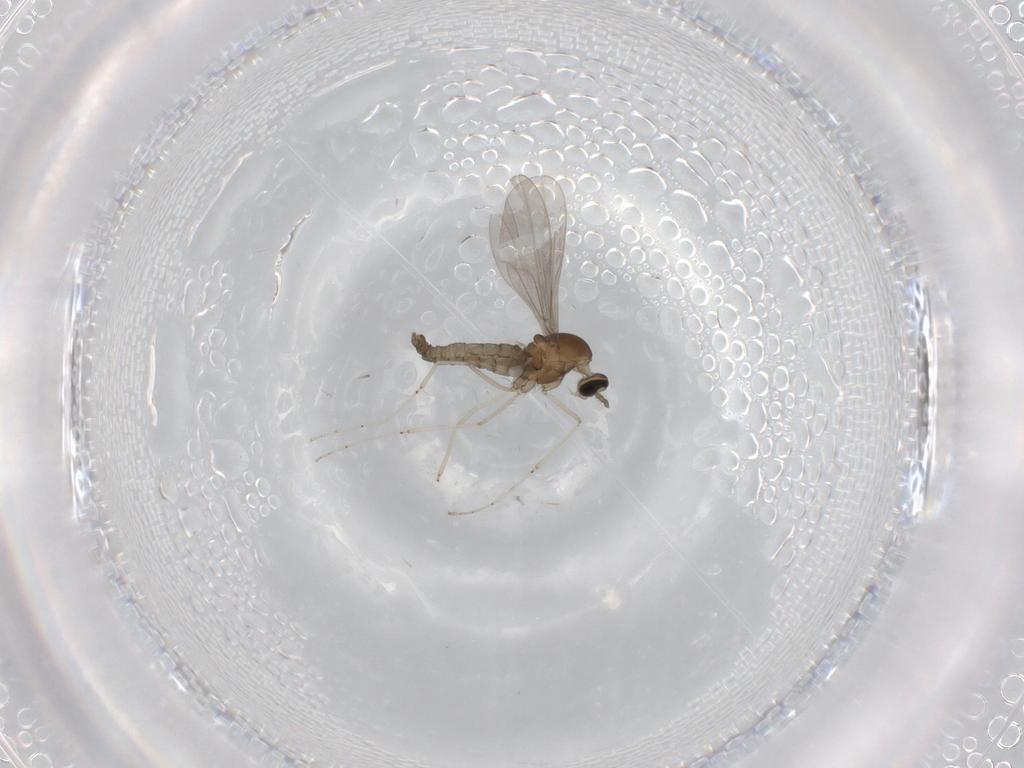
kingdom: Animalia
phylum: Arthropoda
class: Insecta
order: Diptera
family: Cecidomyiidae
